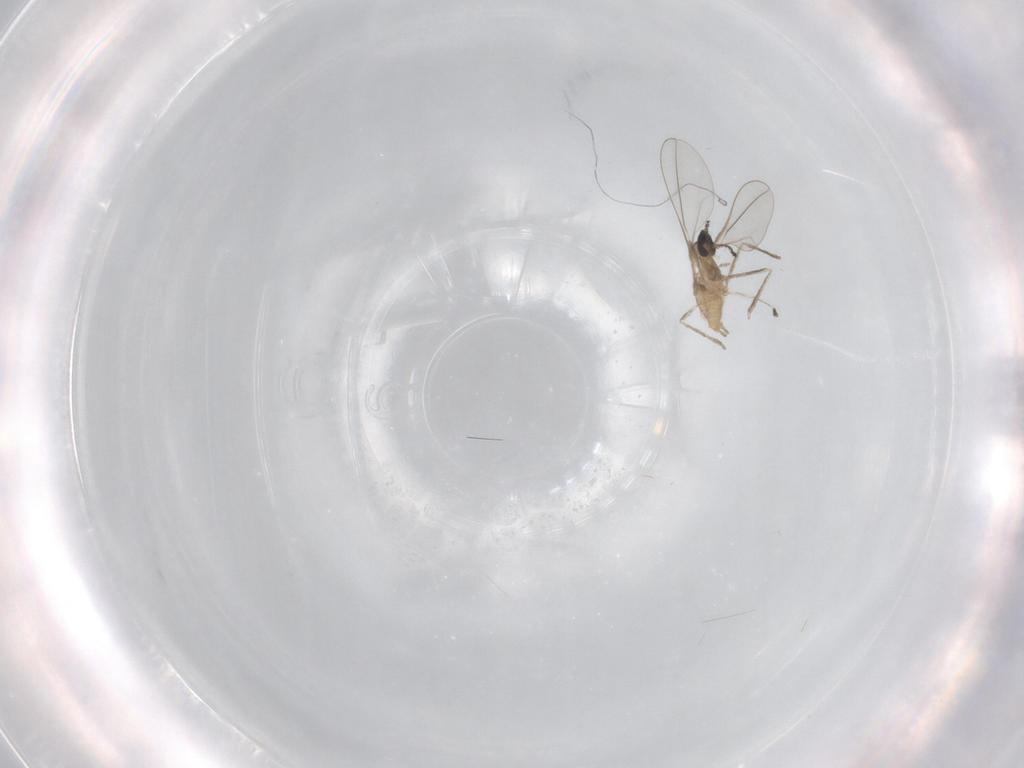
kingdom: Animalia
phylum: Arthropoda
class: Insecta
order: Diptera
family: Cecidomyiidae
